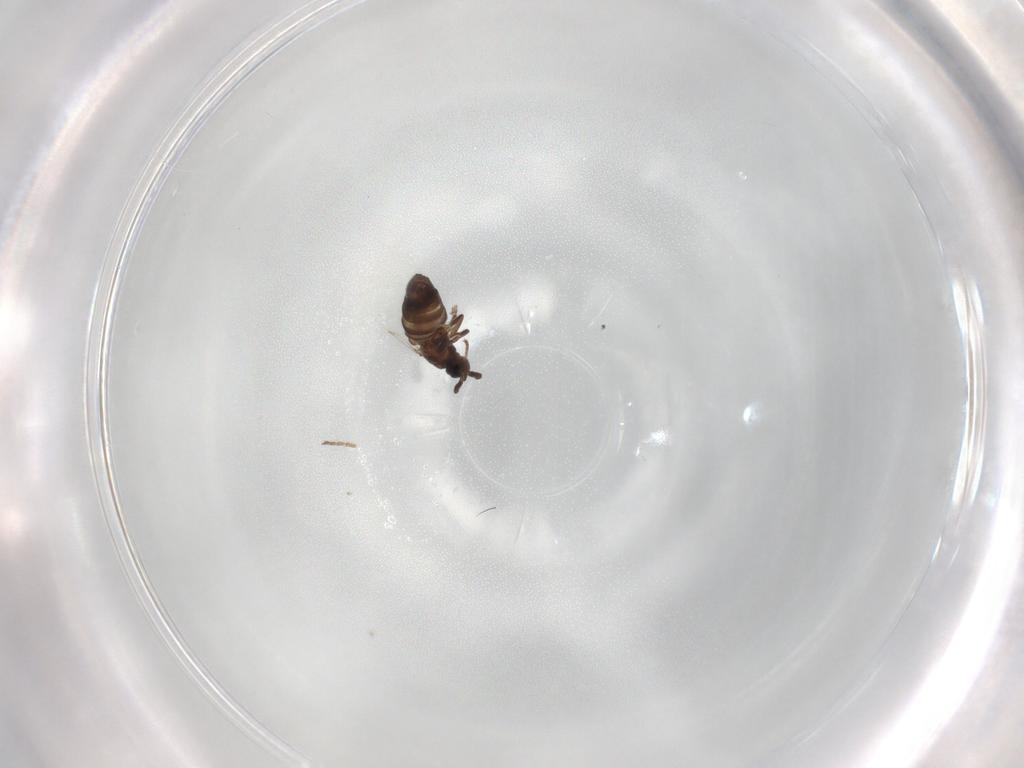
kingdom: Animalia
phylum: Arthropoda
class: Insecta
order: Diptera
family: Scatopsidae
